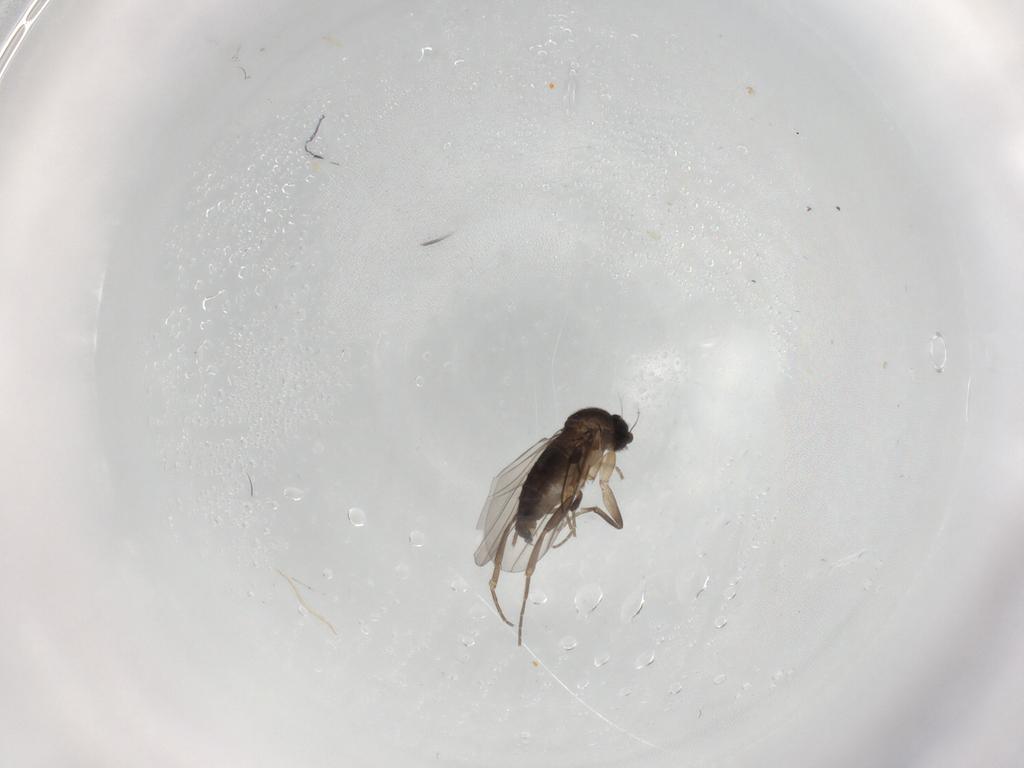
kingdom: Animalia
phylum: Arthropoda
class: Insecta
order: Diptera
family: Phoridae
